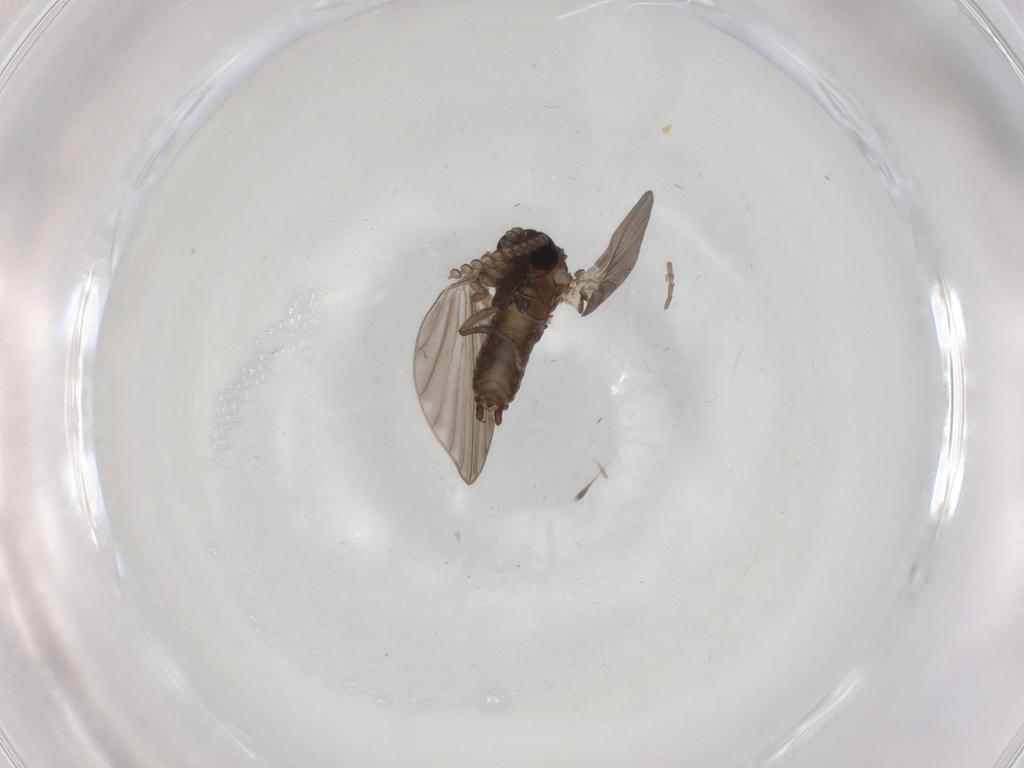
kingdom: Animalia
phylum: Arthropoda
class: Insecta
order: Diptera
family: Psychodidae
